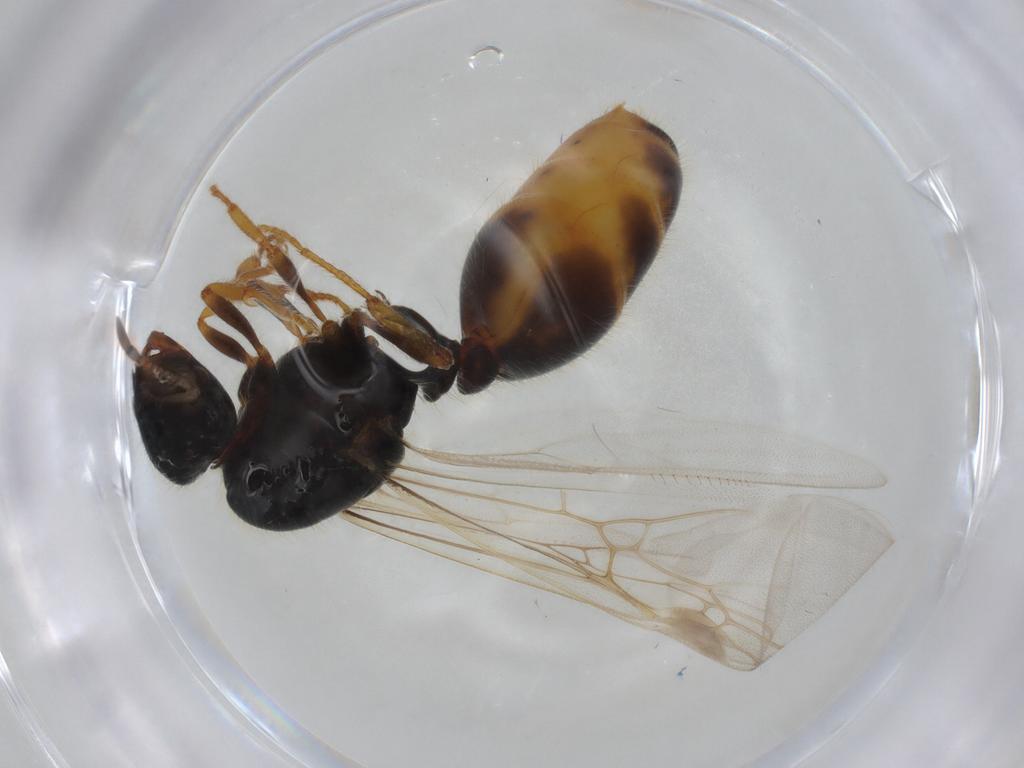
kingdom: Animalia
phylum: Arthropoda
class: Insecta
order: Hymenoptera
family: Formicidae
